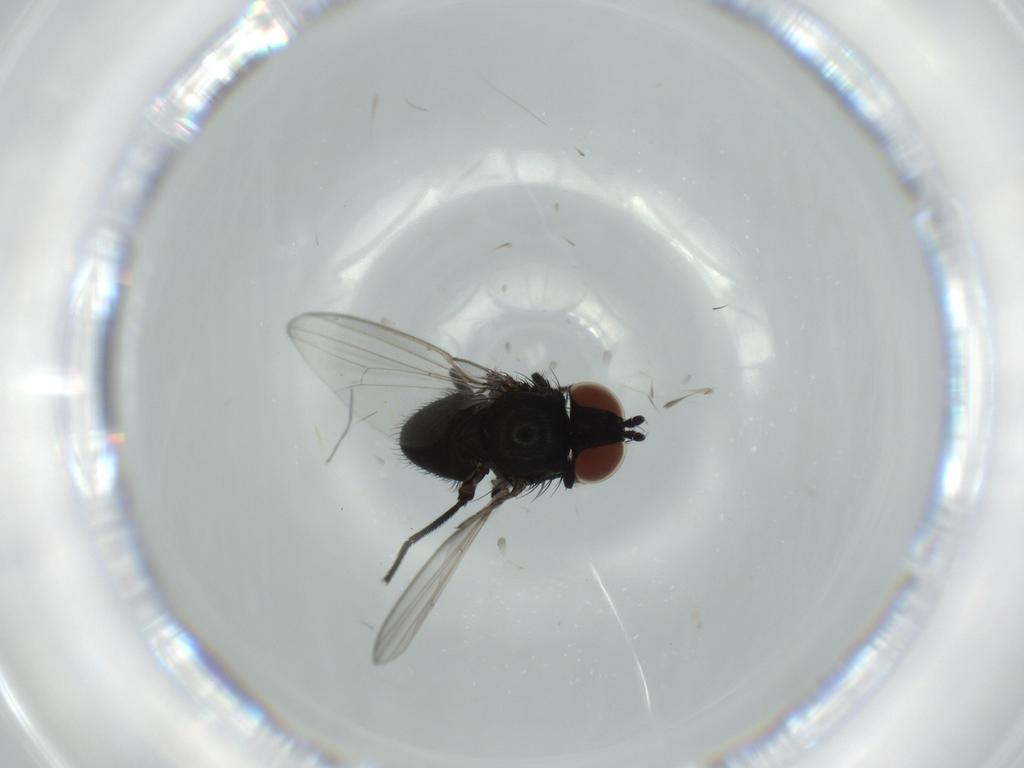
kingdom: Animalia
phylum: Arthropoda
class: Insecta
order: Diptera
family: Milichiidae
